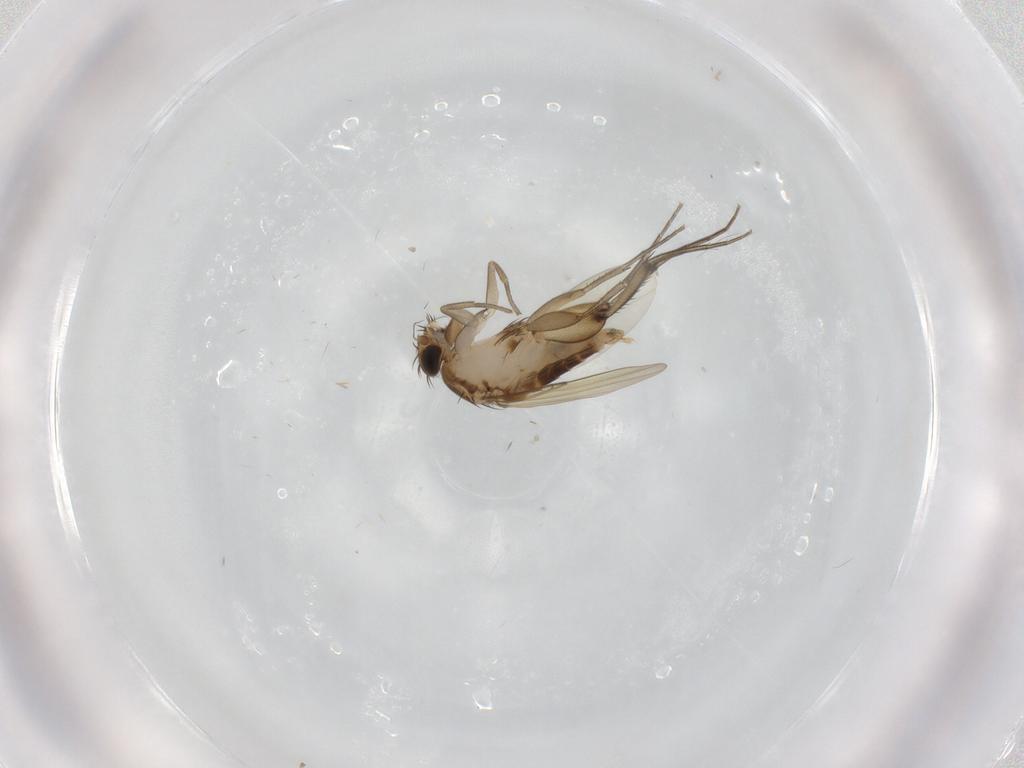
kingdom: Animalia
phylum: Arthropoda
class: Insecta
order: Diptera
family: Phoridae
